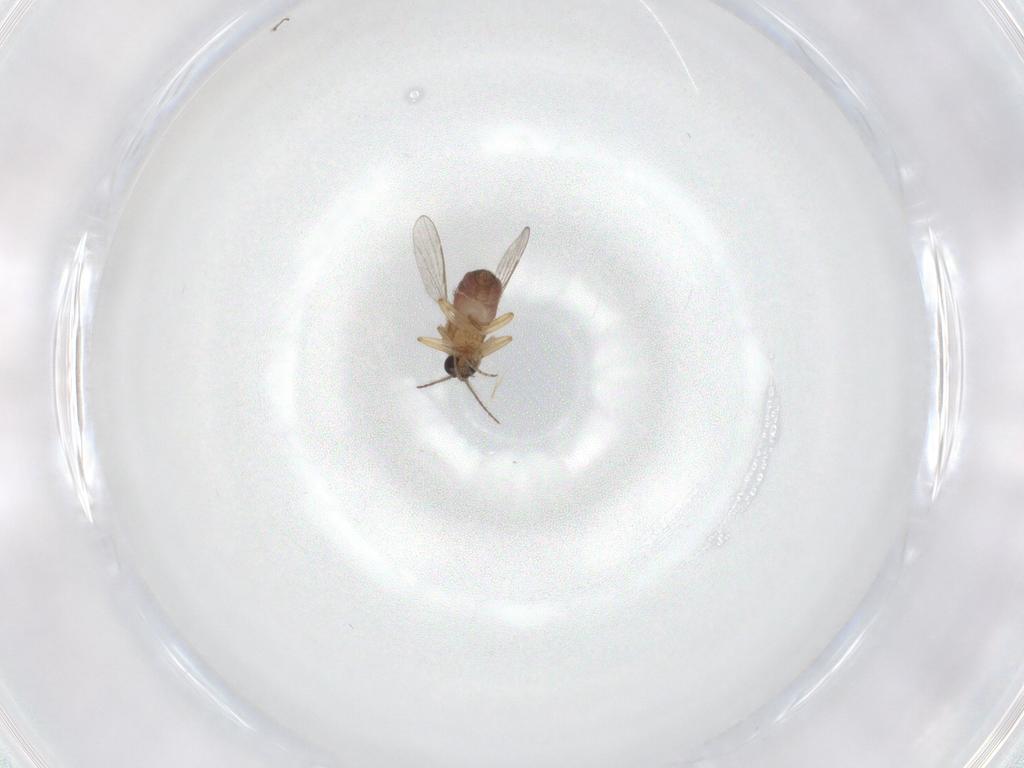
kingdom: Animalia
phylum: Arthropoda
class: Insecta
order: Diptera
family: Chironomidae
